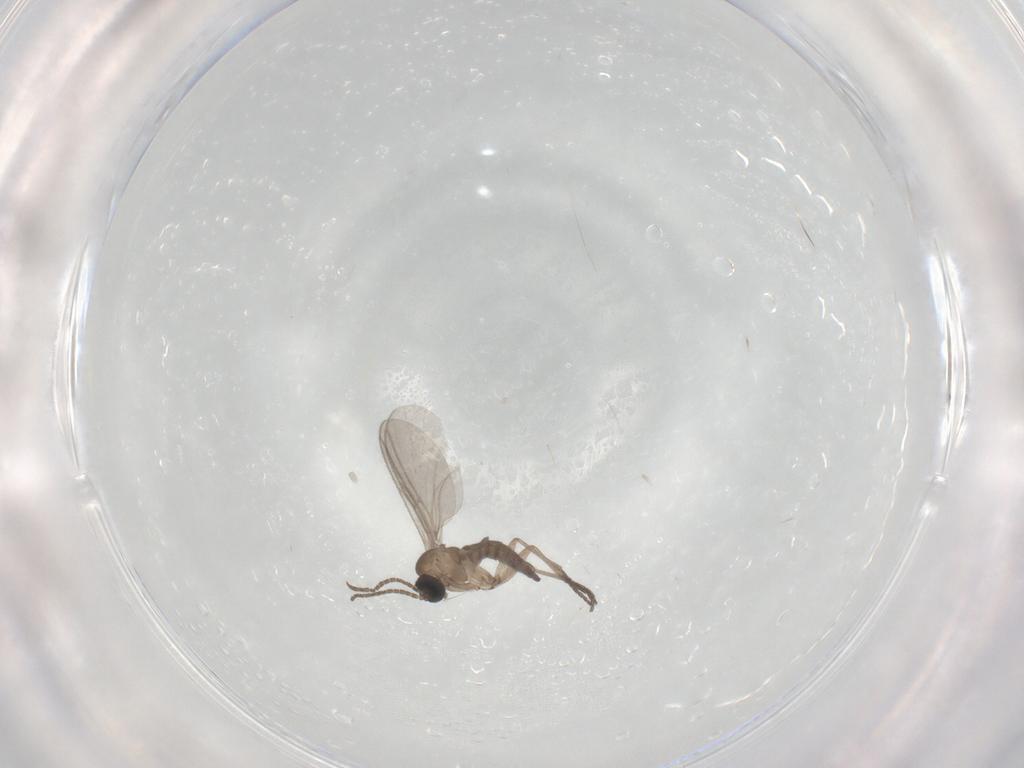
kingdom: Animalia
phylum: Arthropoda
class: Insecta
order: Diptera
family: Sciaridae
